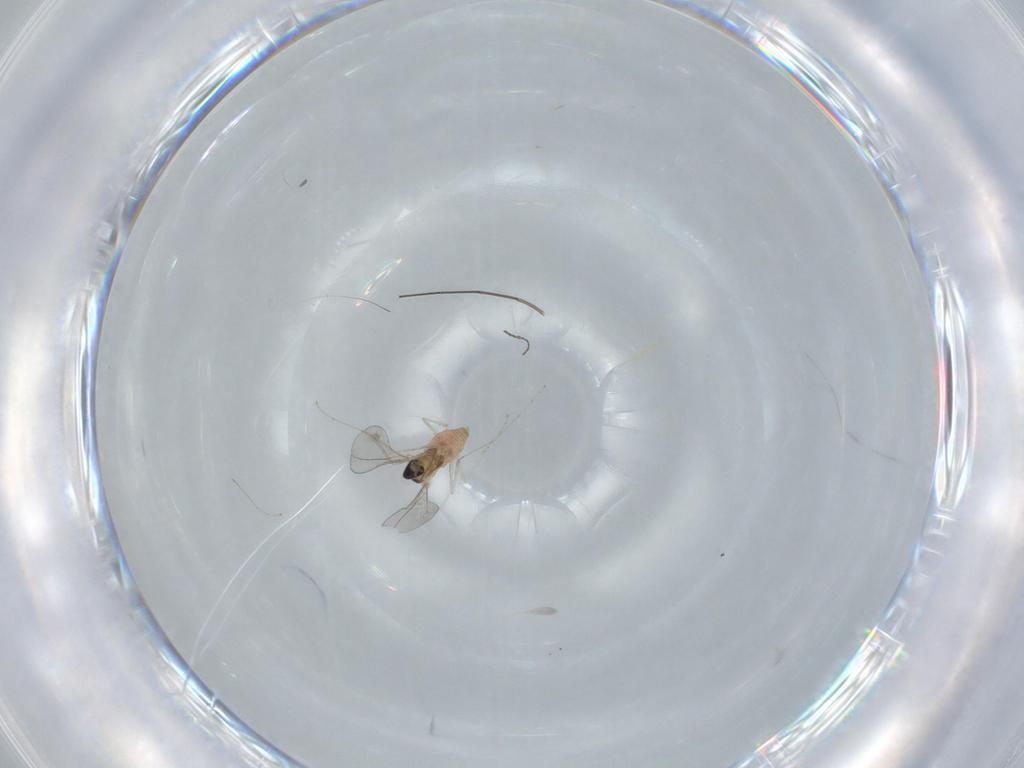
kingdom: Animalia
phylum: Arthropoda
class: Insecta
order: Diptera
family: Cecidomyiidae
